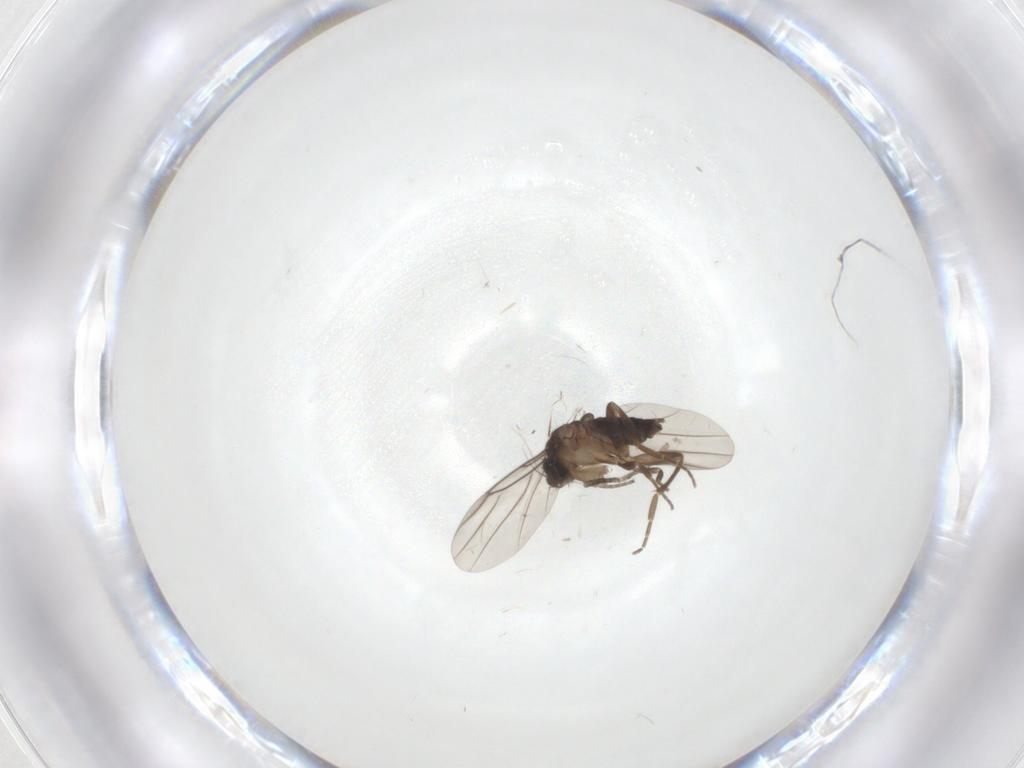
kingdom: Animalia
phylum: Arthropoda
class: Insecta
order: Diptera
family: Phoridae
